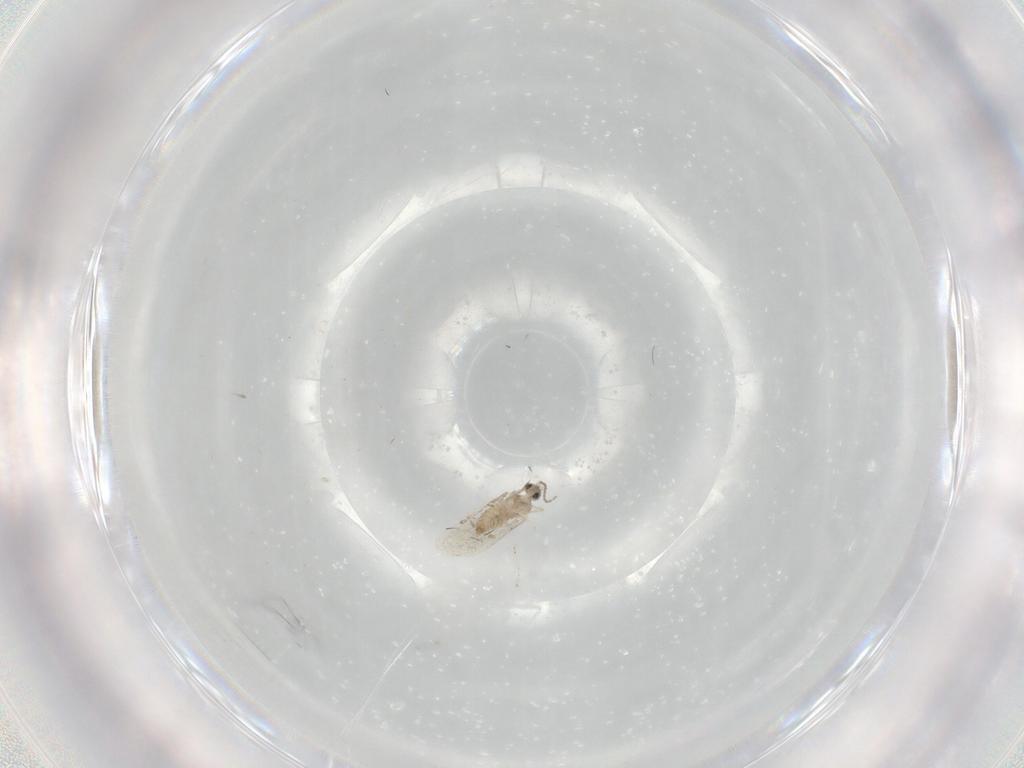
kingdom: Animalia
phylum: Arthropoda
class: Insecta
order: Diptera
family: Cecidomyiidae
